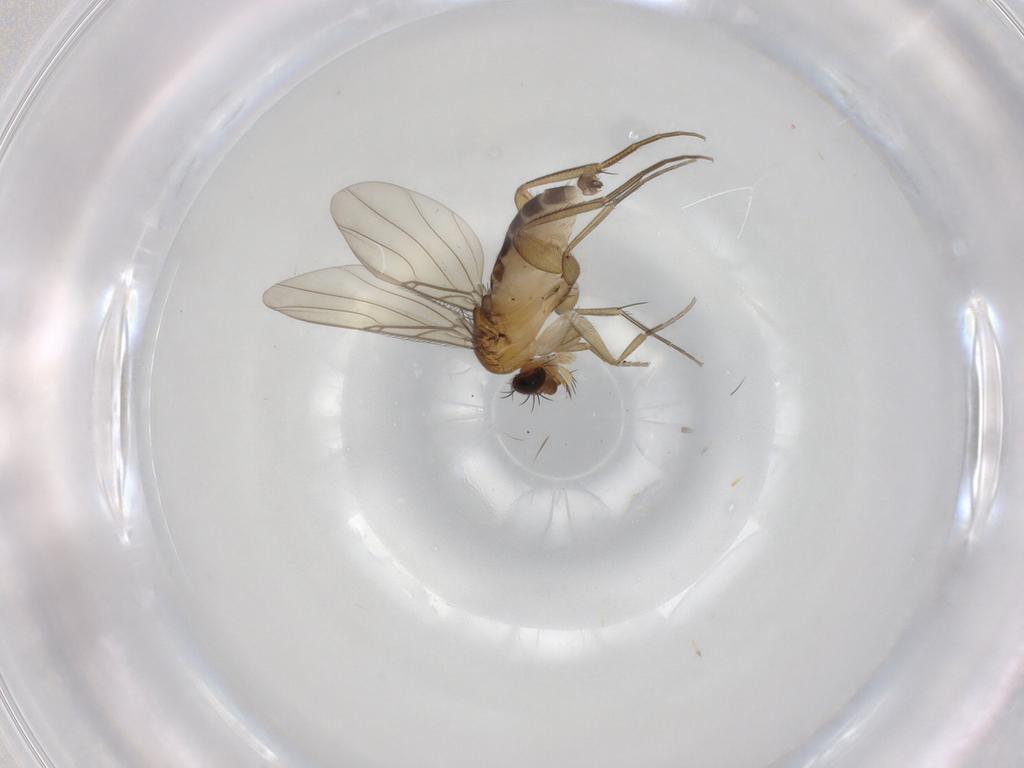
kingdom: Animalia
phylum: Arthropoda
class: Insecta
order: Diptera
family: Phoridae
